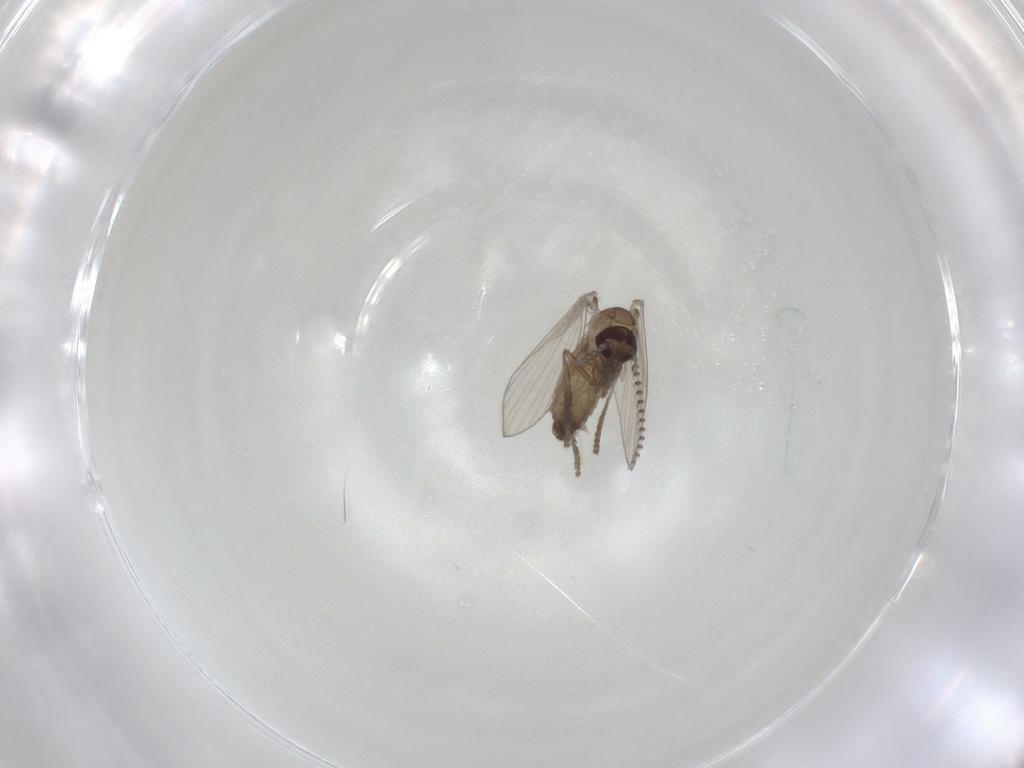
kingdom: Animalia
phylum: Arthropoda
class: Insecta
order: Diptera
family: Psychodidae
